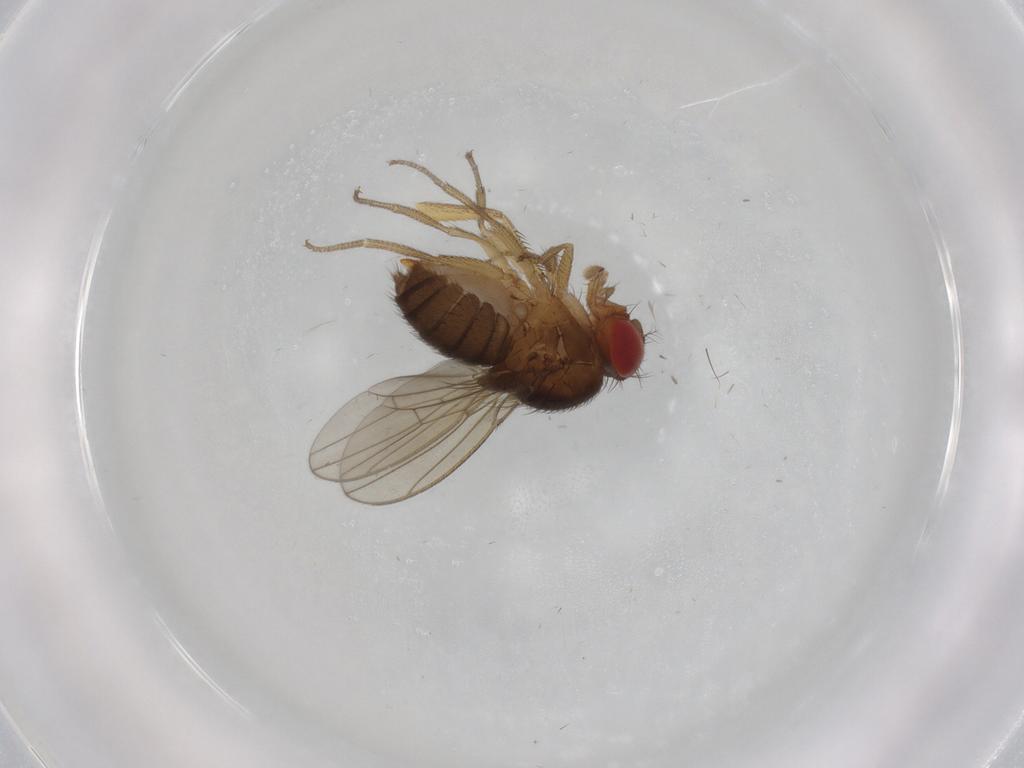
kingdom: Animalia
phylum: Arthropoda
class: Insecta
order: Diptera
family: Drosophilidae
